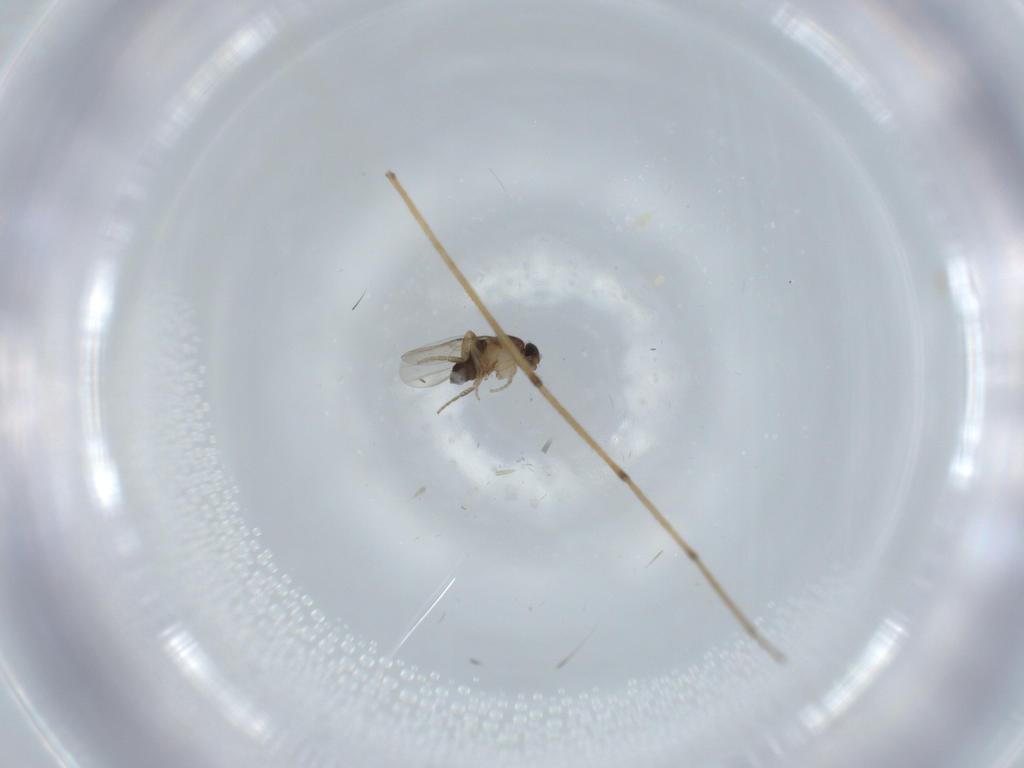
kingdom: Animalia
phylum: Arthropoda
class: Insecta
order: Diptera
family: Chironomidae
